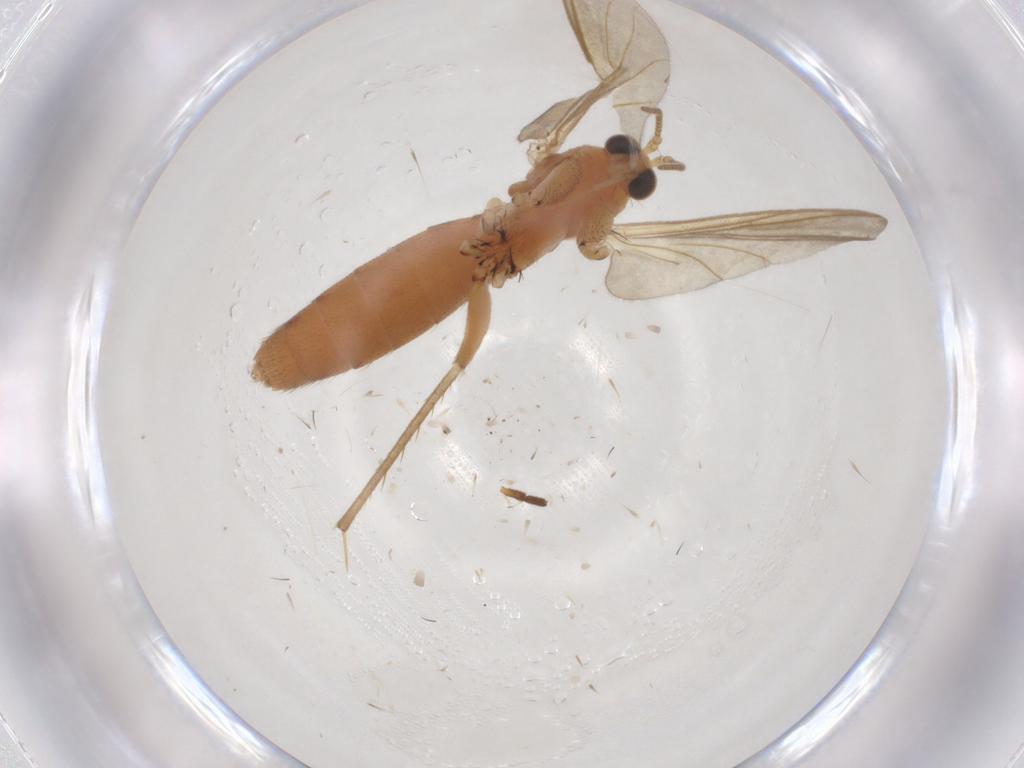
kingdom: Animalia
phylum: Arthropoda
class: Insecta
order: Diptera
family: Mycetophilidae
